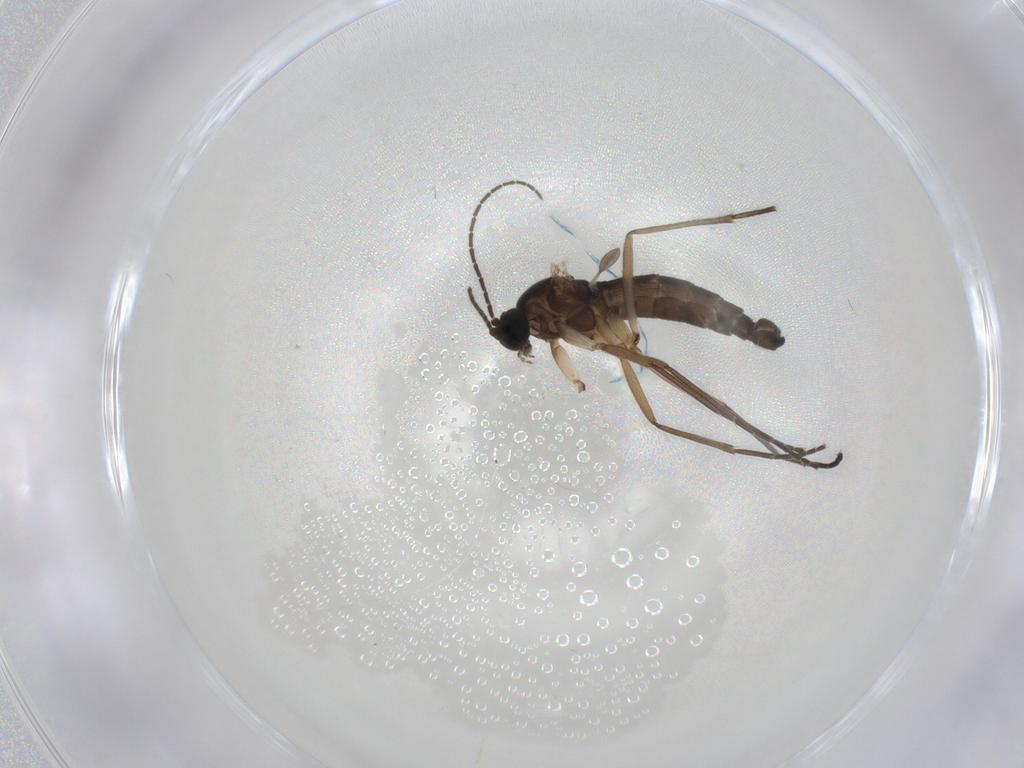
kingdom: Animalia
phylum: Arthropoda
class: Insecta
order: Diptera
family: Sciaridae
